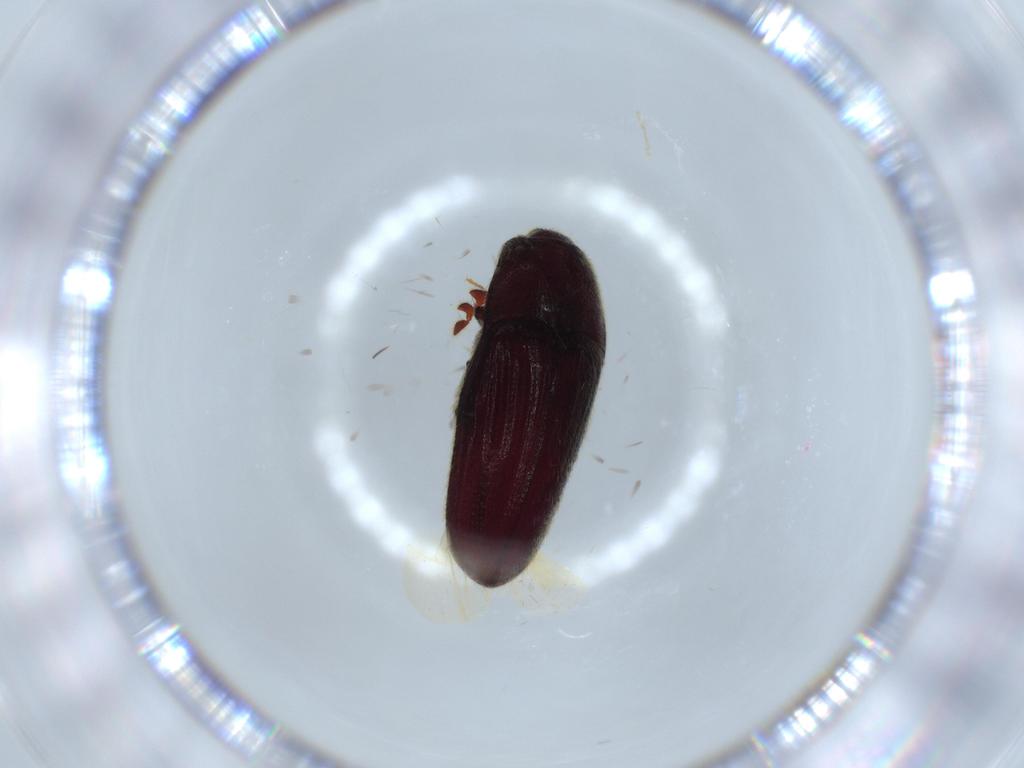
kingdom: Animalia
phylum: Arthropoda
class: Insecta
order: Coleoptera
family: Throscidae
